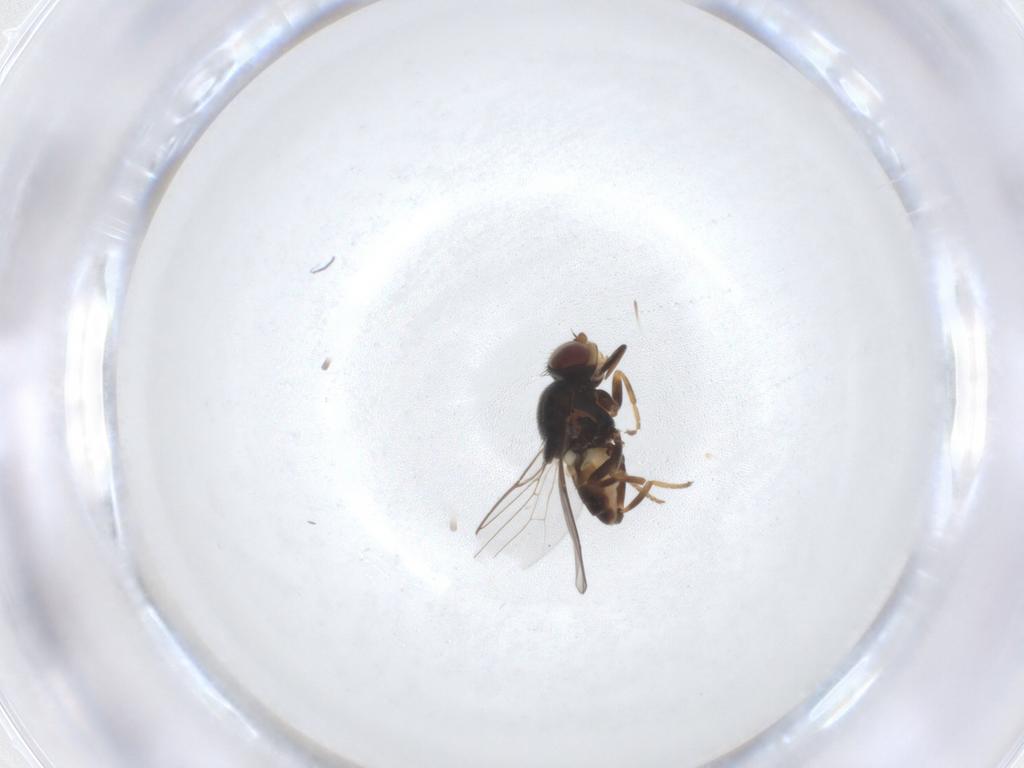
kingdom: Animalia
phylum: Arthropoda
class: Insecta
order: Diptera
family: Chloropidae
